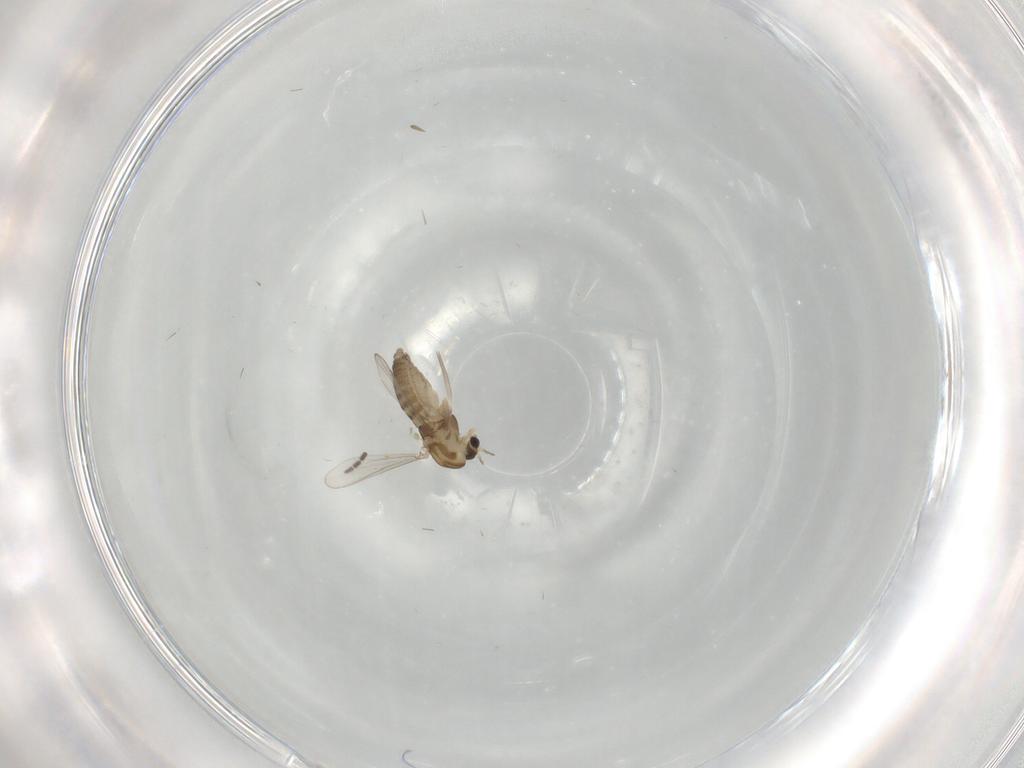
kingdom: Animalia
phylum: Arthropoda
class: Insecta
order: Diptera
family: Chironomidae
